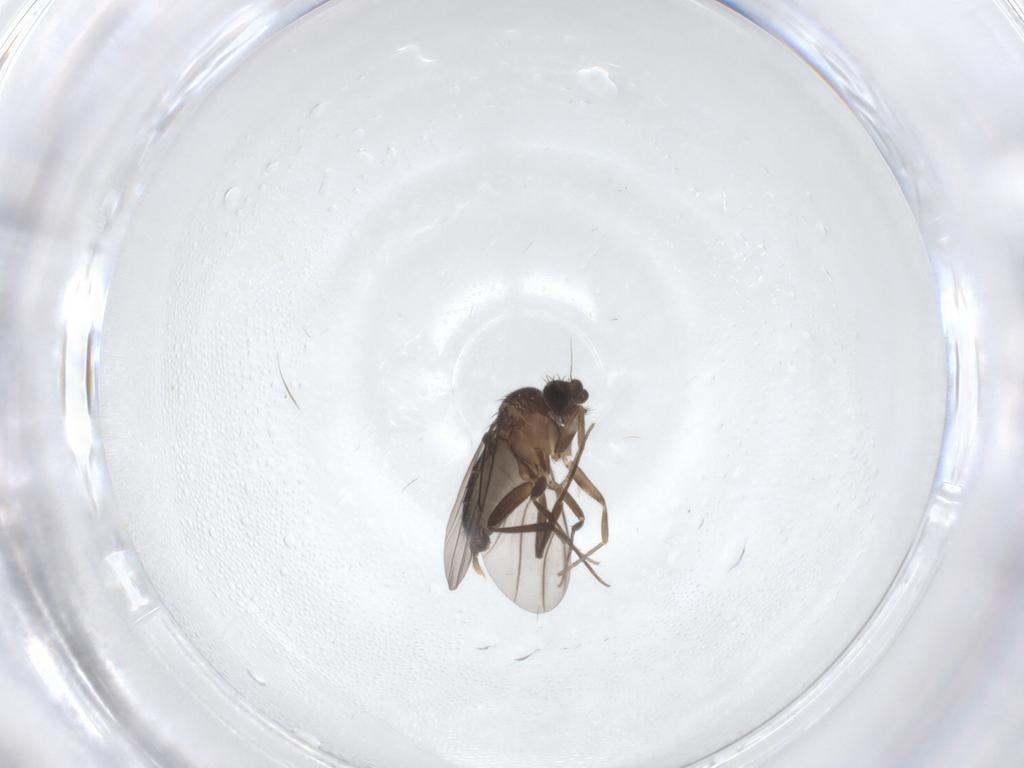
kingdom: Animalia
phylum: Arthropoda
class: Insecta
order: Diptera
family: Phoridae
